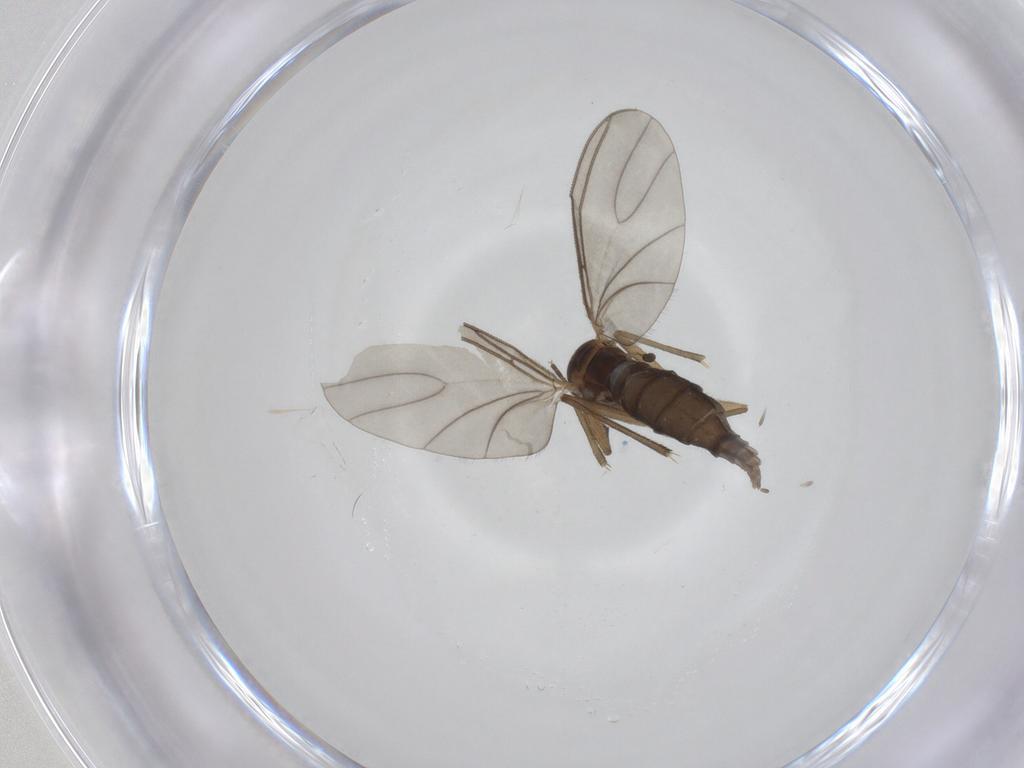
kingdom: Animalia
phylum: Arthropoda
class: Insecta
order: Diptera
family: Sciaridae
